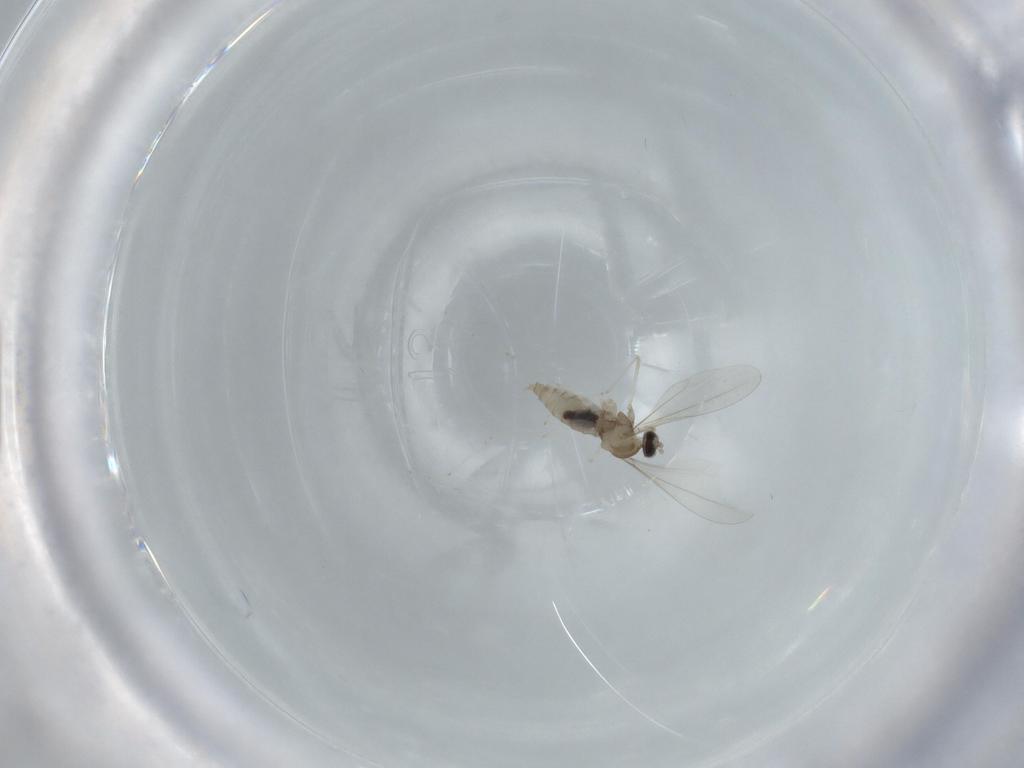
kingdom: Animalia
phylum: Arthropoda
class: Insecta
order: Diptera
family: Cecidomyiidae
